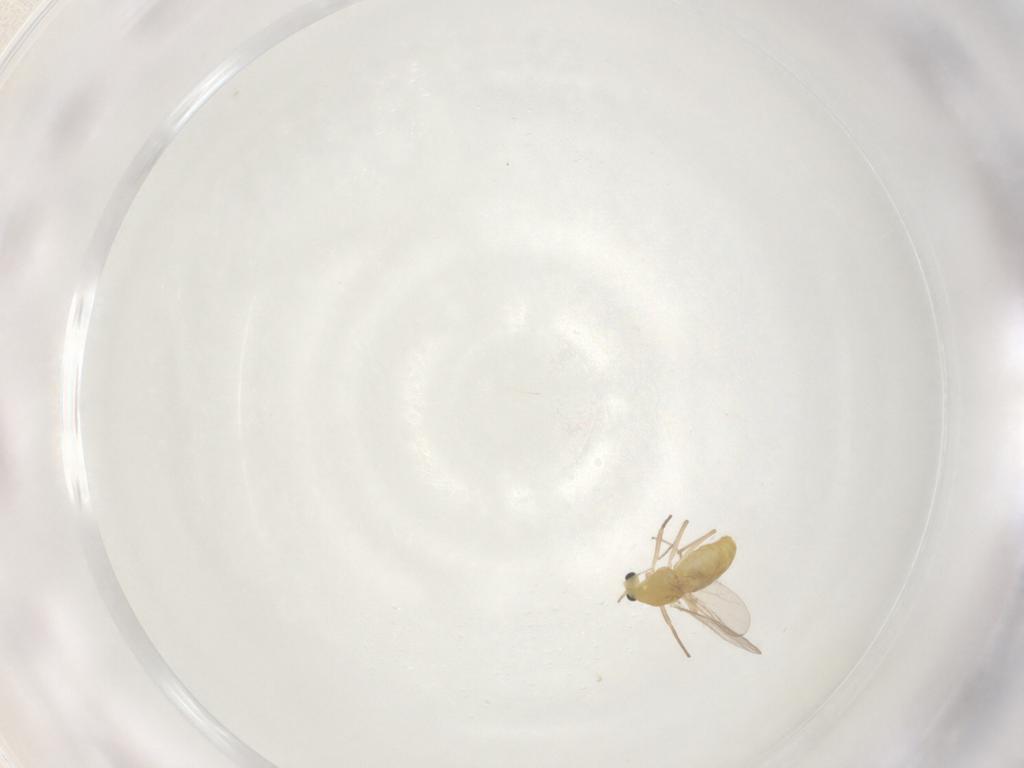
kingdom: Animalia
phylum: Arthropoda
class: Insecta
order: Diptera
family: Chironomidae
